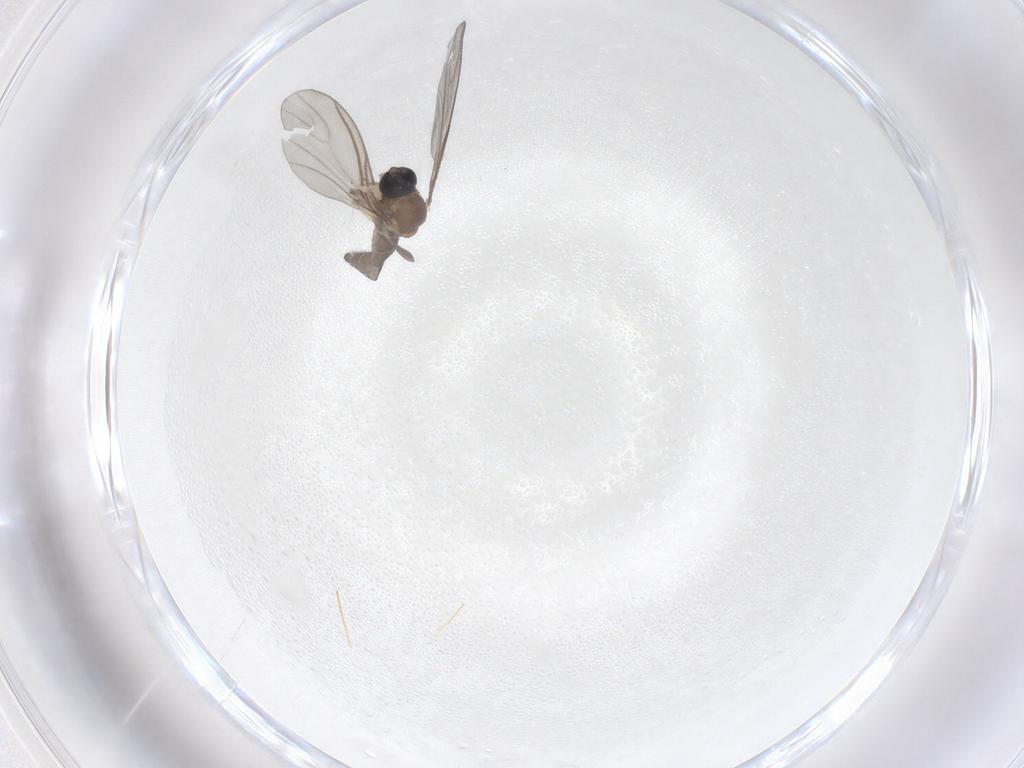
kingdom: Animalia
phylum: Arthropoda
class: Insecta
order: Diptera
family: Sciaridae
